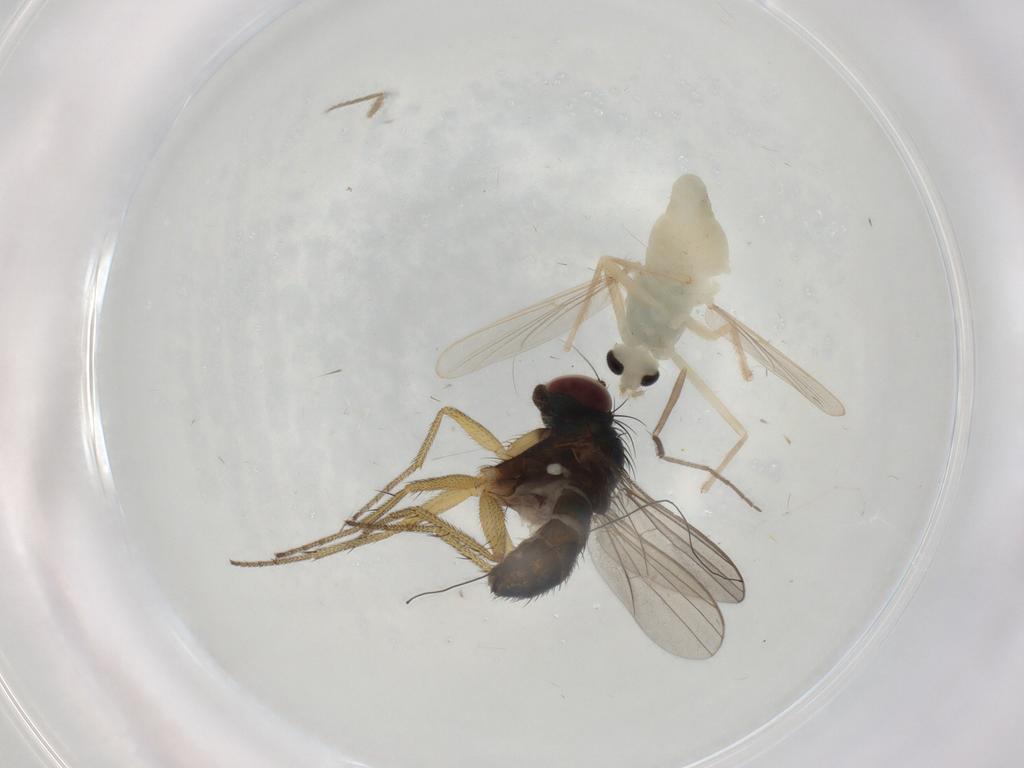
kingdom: Animalia
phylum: Arthropoda
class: Insecta
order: Diptera
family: Chironomidae
